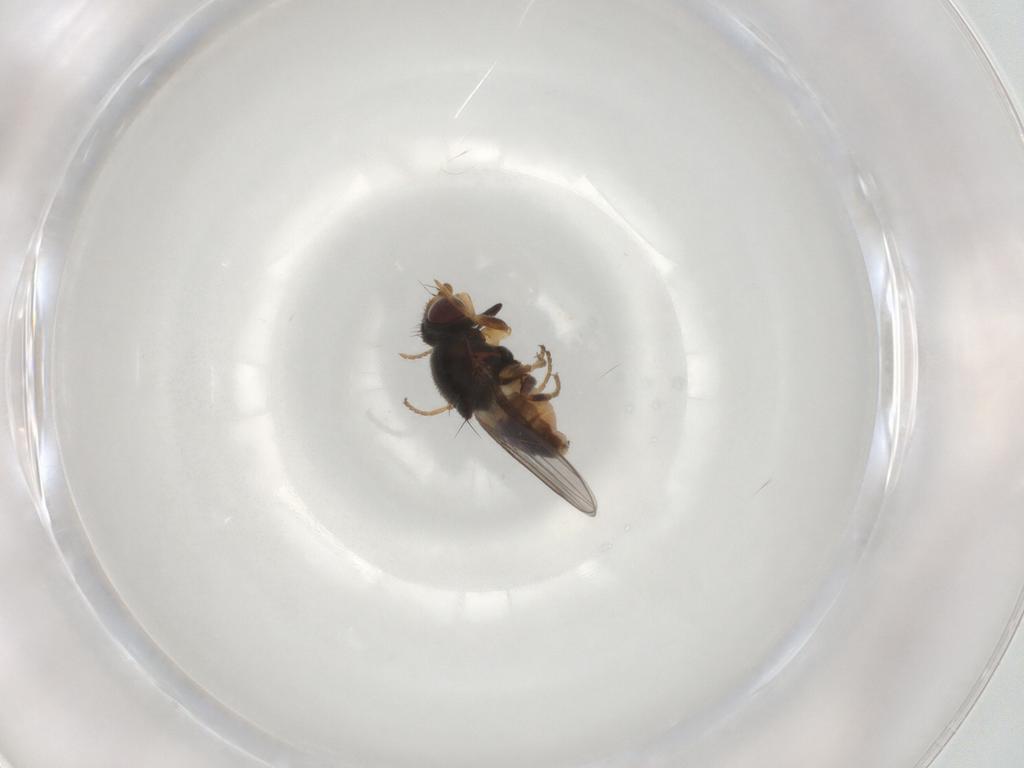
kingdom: Animalia
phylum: Arthropoda
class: Insecta
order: Diptera
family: Chloropidae
